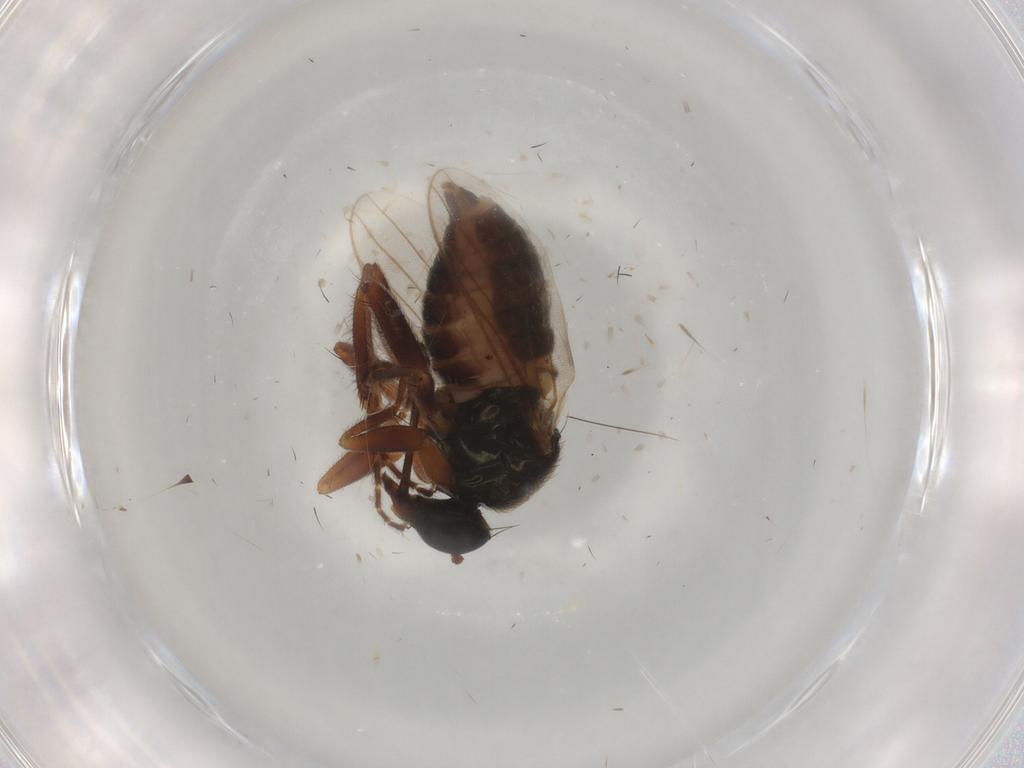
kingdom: Animalia
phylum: Arthropoda
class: Insecta
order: Diptera
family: Hybotidae
